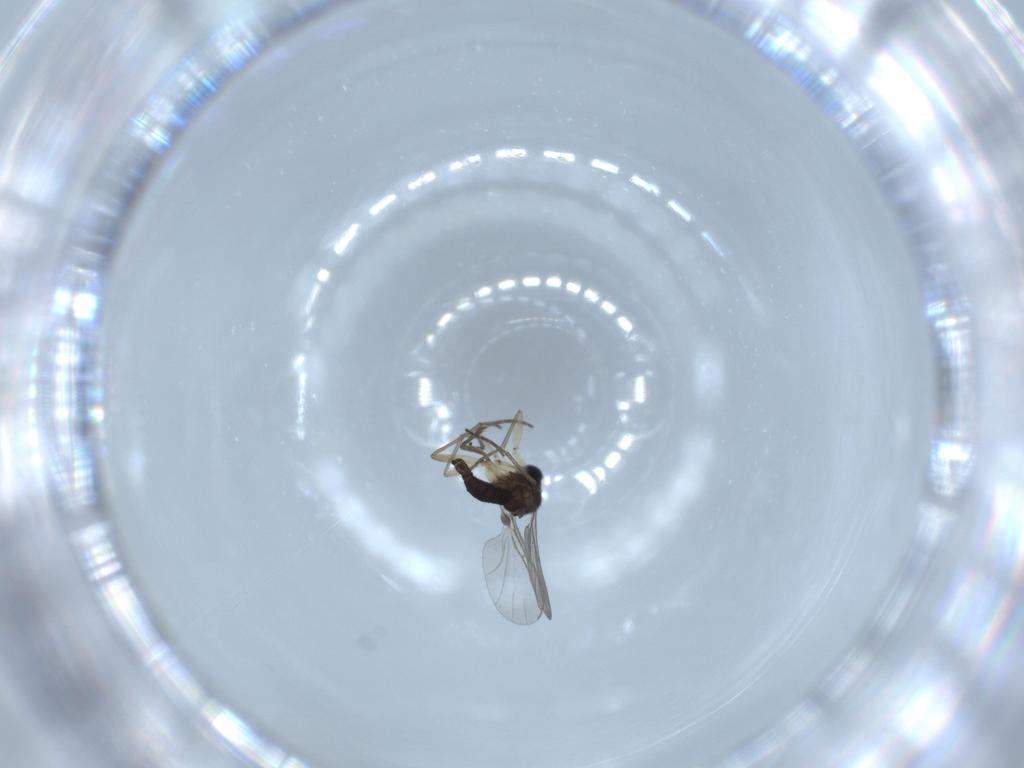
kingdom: Animalia
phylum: Arthropoda
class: Insecta
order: Diptera
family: Sciaridae
